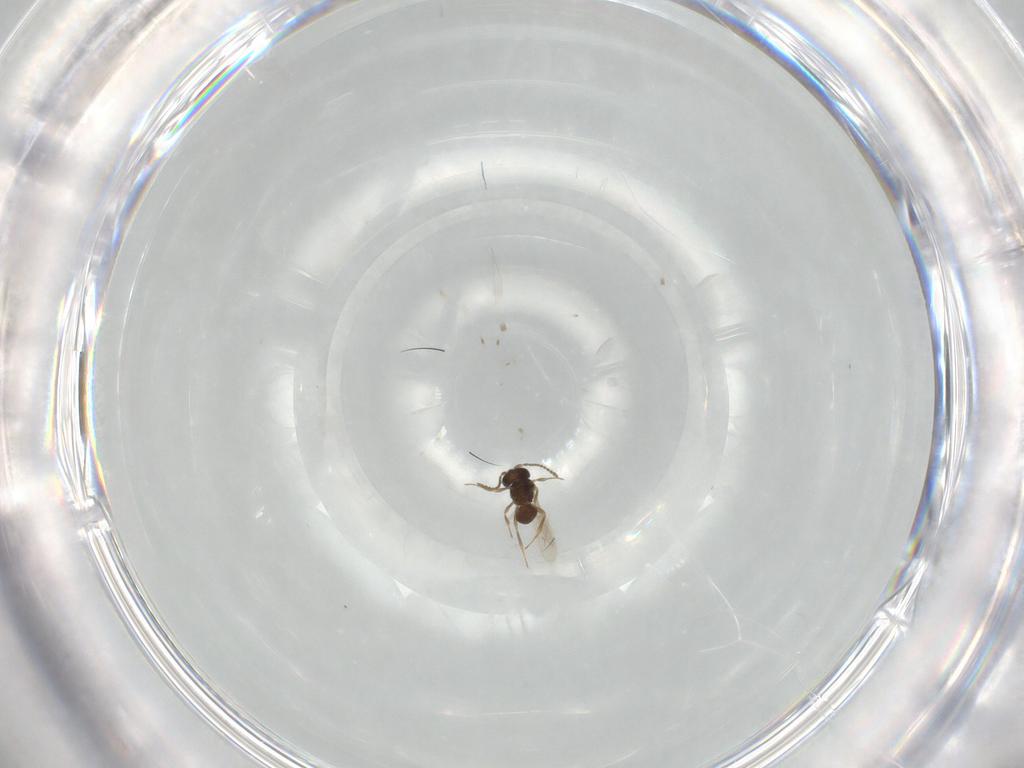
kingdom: Animalia
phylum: Arthropoda
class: Insecta
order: Hymenoptera
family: Scelionidae
